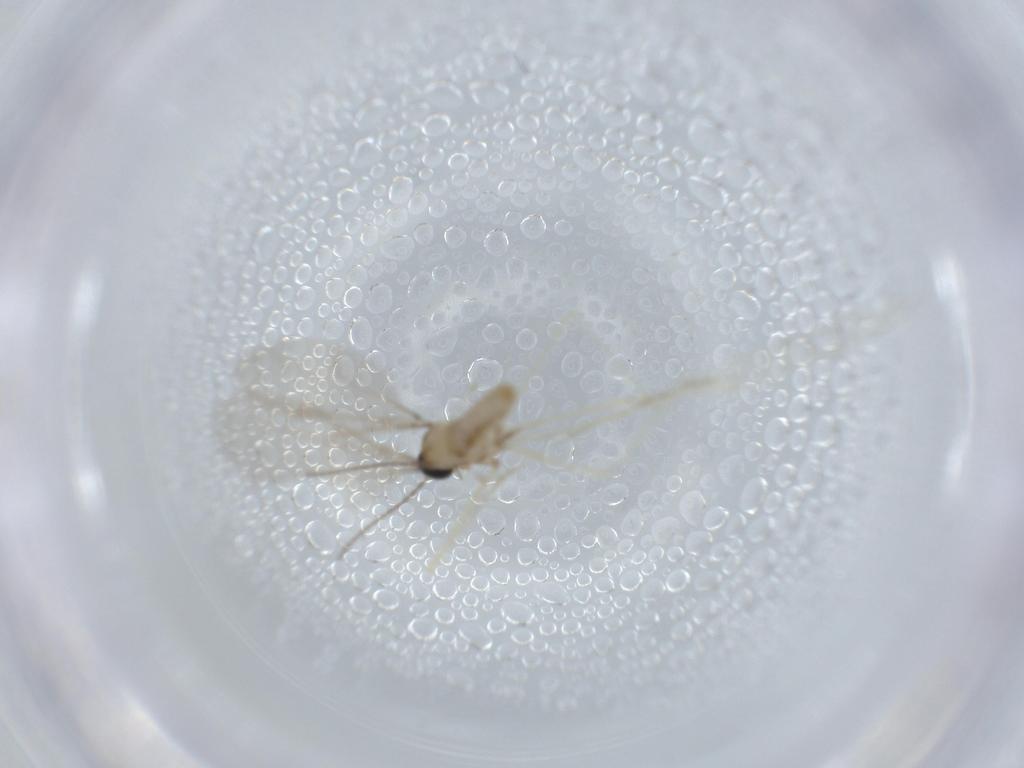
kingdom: Animalia
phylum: Arthropoda
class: Insecta
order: Diptera
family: Cecidomyiidae
